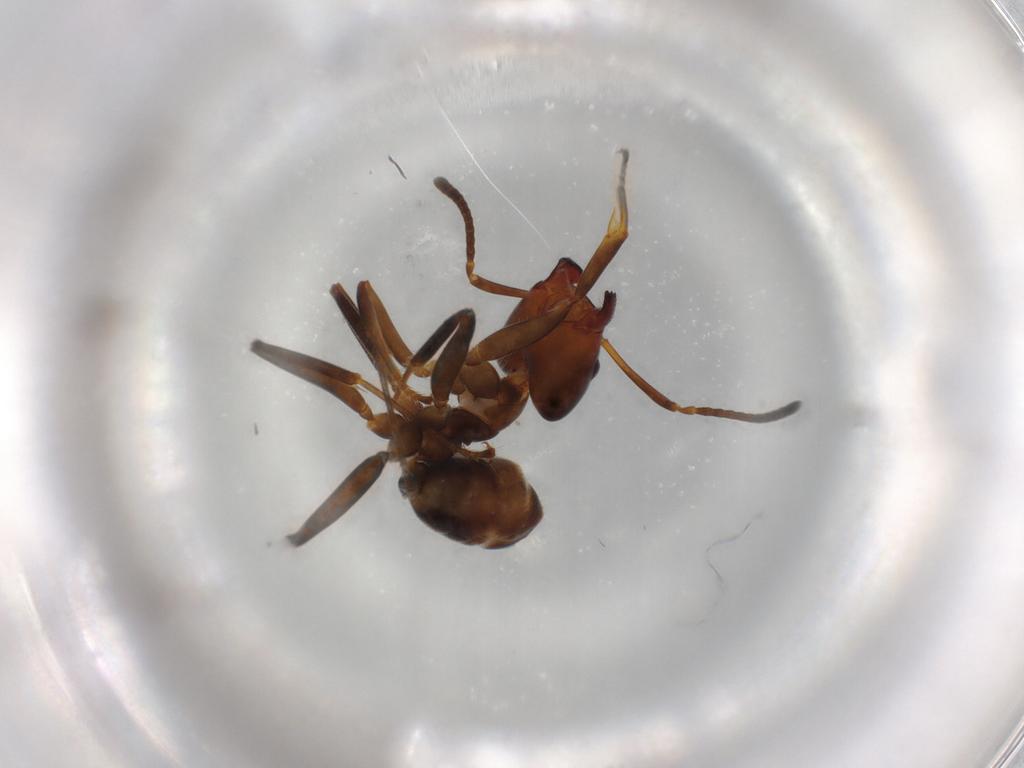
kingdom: Animalia
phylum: Arthropoda
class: Insecta
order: Hymenoptera
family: Formicidae
